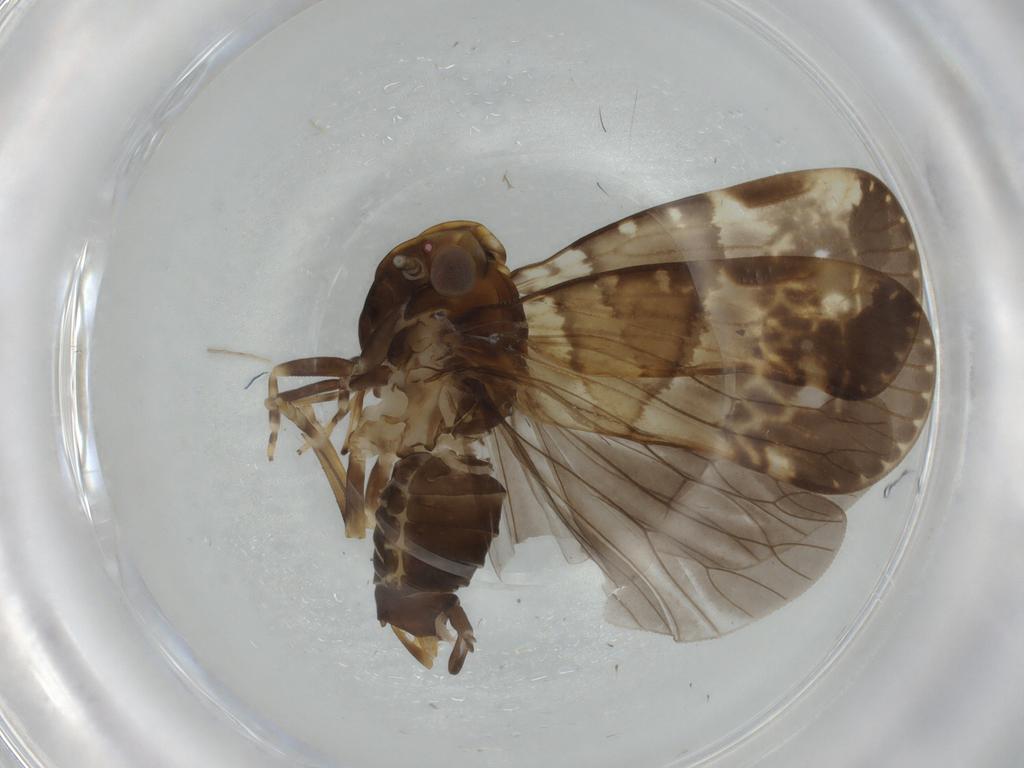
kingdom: Animalia
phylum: Arthropoda
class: Insecta
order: Hemiptera
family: Cixiidae
